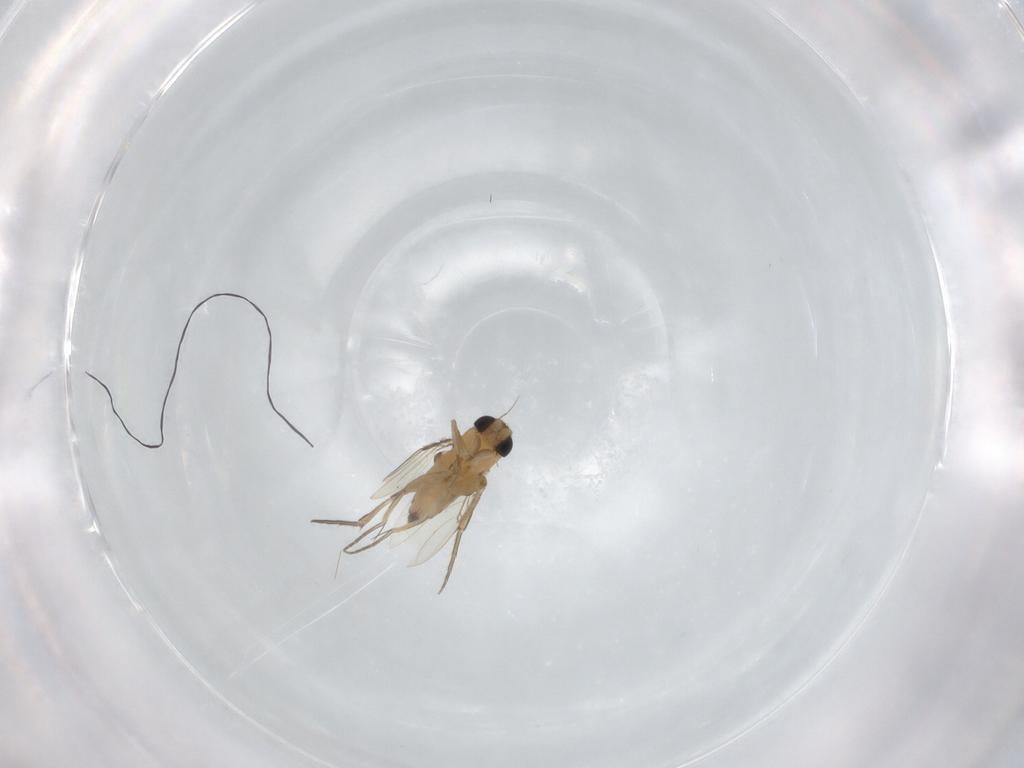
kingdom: Animalia
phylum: Arthropoda
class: Insecta
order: Diptera
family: Phoridae
